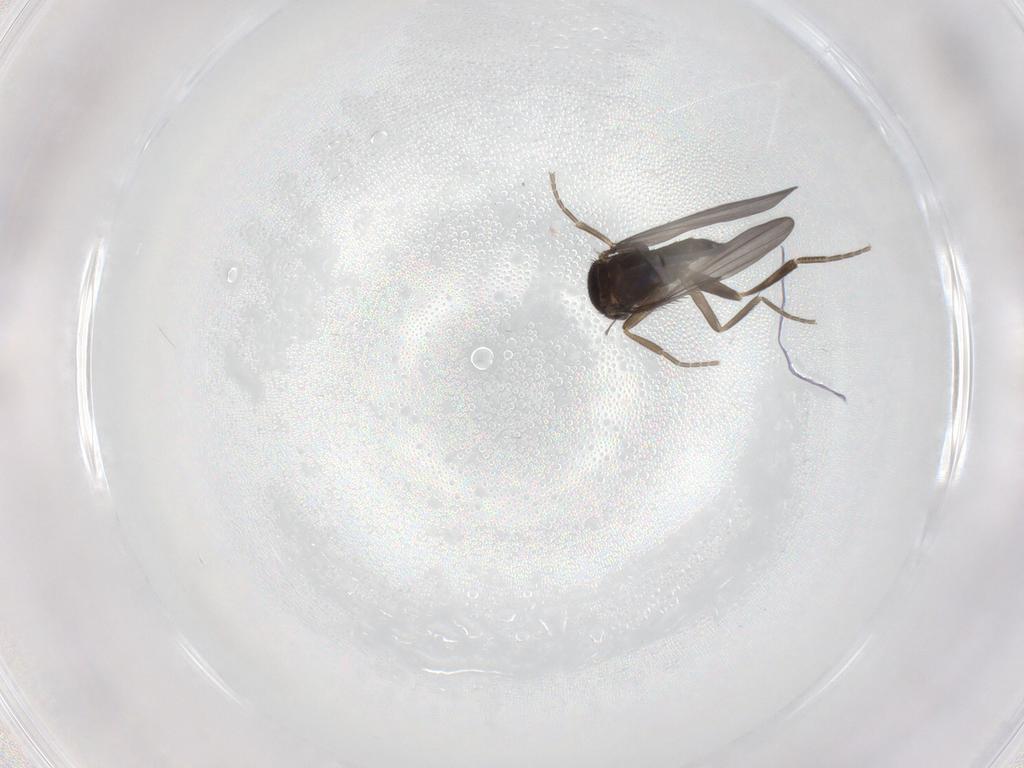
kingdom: Animalia
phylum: Arthropoda
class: Insecta
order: Diptera
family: Phoridae
